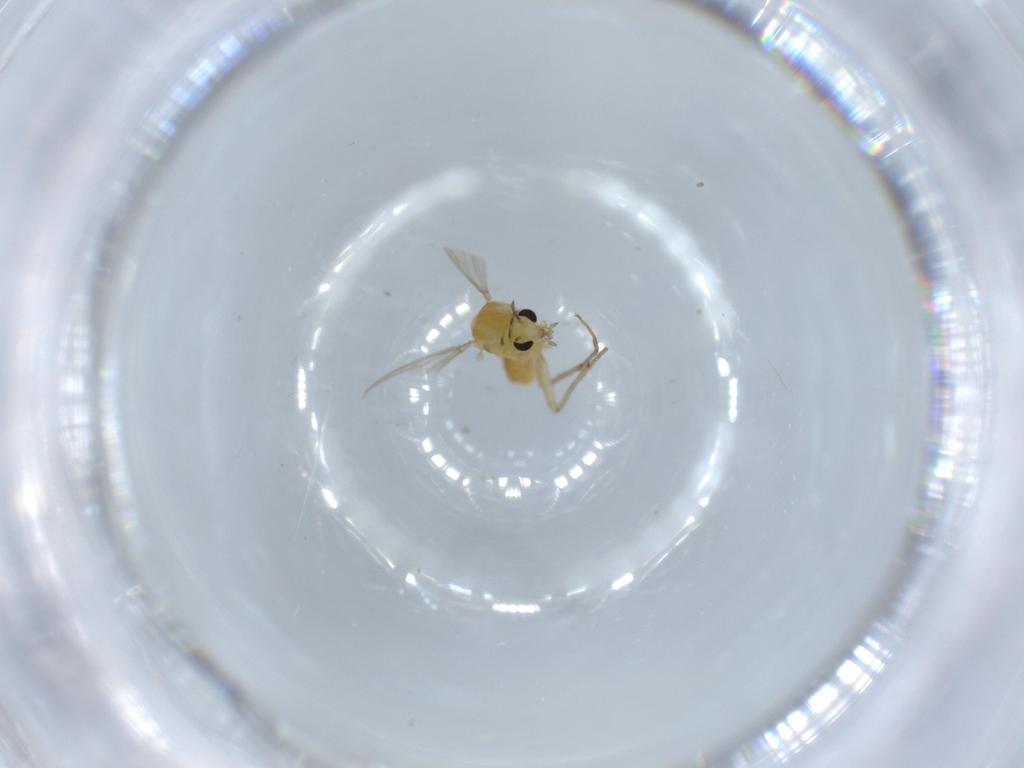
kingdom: Animalia
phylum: Arthropoda
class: Insecta
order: Diptera
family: Chironomidae
